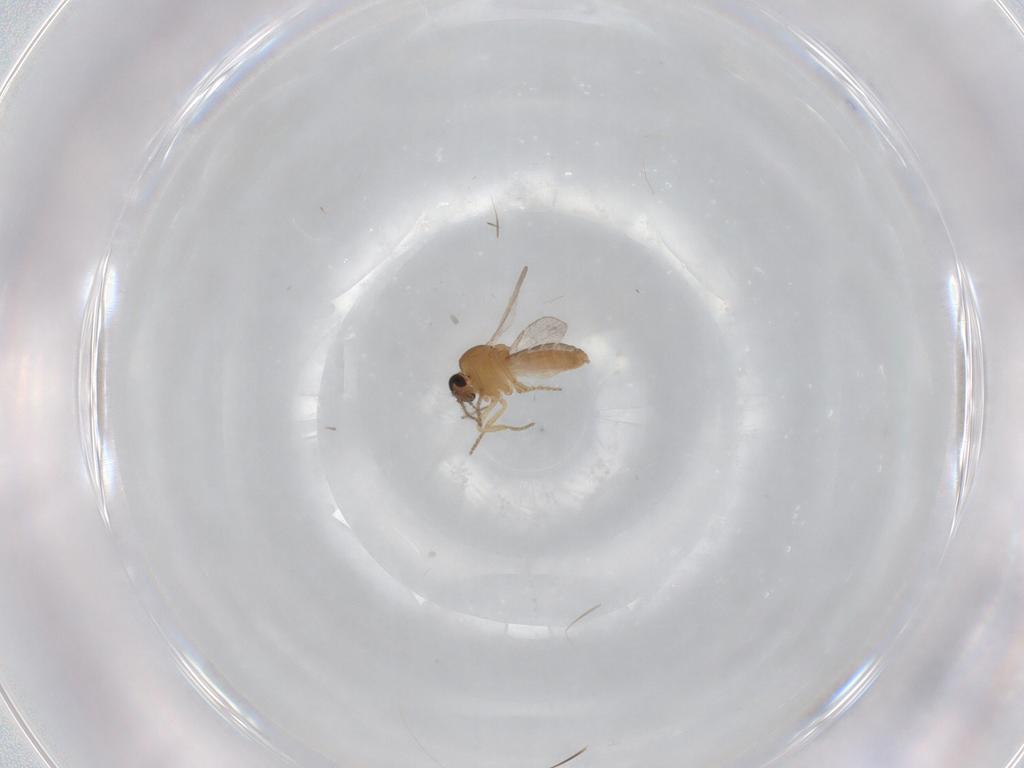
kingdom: Animalia
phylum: Arthropoda
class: Insecta
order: Diptera
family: Ceratopogonidae
